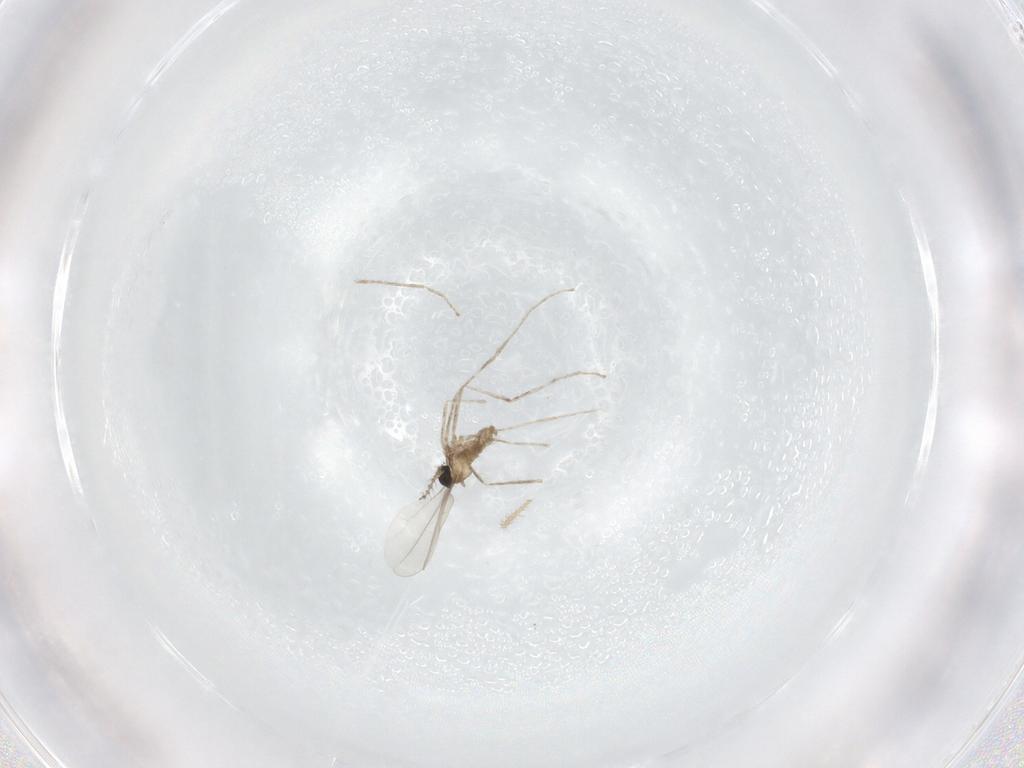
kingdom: Animalia
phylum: Arthropoda
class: Insecta
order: Diptera
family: Limoniidae
